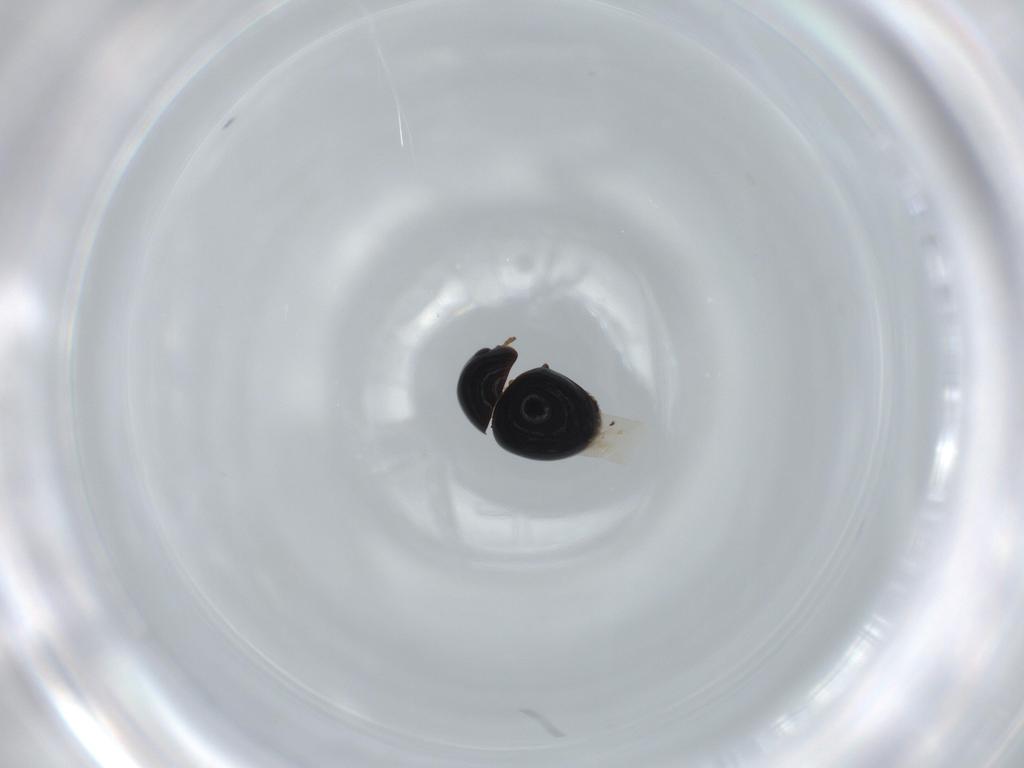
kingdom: Animalia
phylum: Arthropoda
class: Insecta
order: Coleoptera
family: Cybocephalidae
